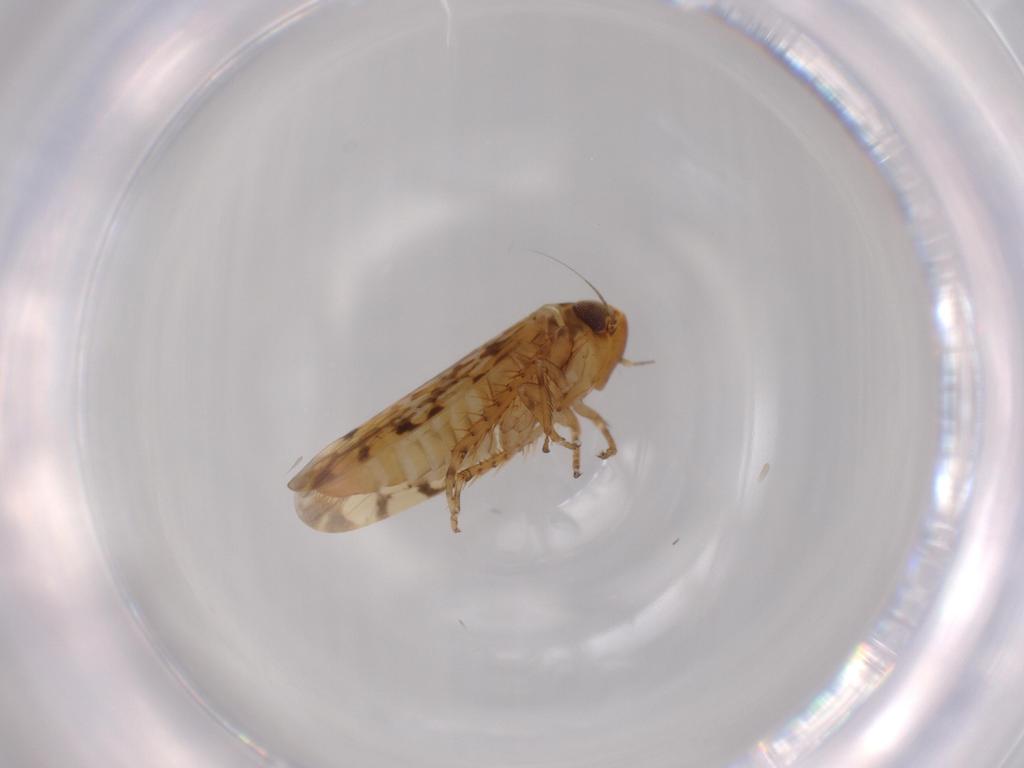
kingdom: Animalia
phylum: Arthropoda
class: Insecta
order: Hemiptera
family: Cicadellidae
